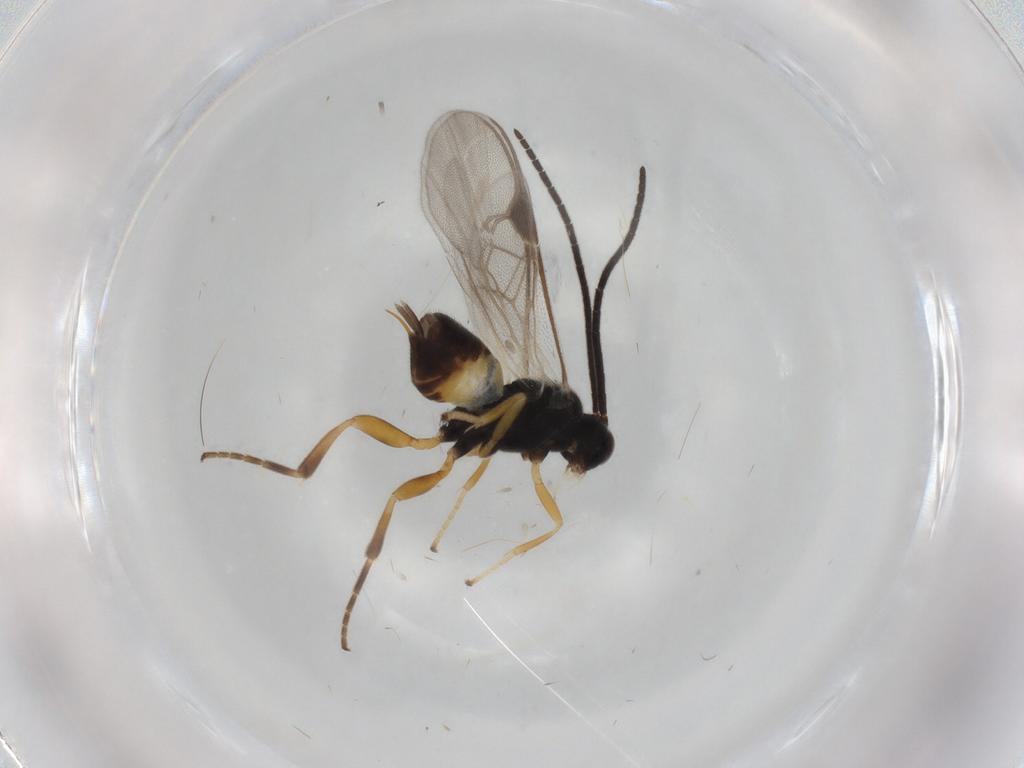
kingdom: Animalia
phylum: Arthropoda
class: Insecta
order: Hymenoptera
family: Braconidae
